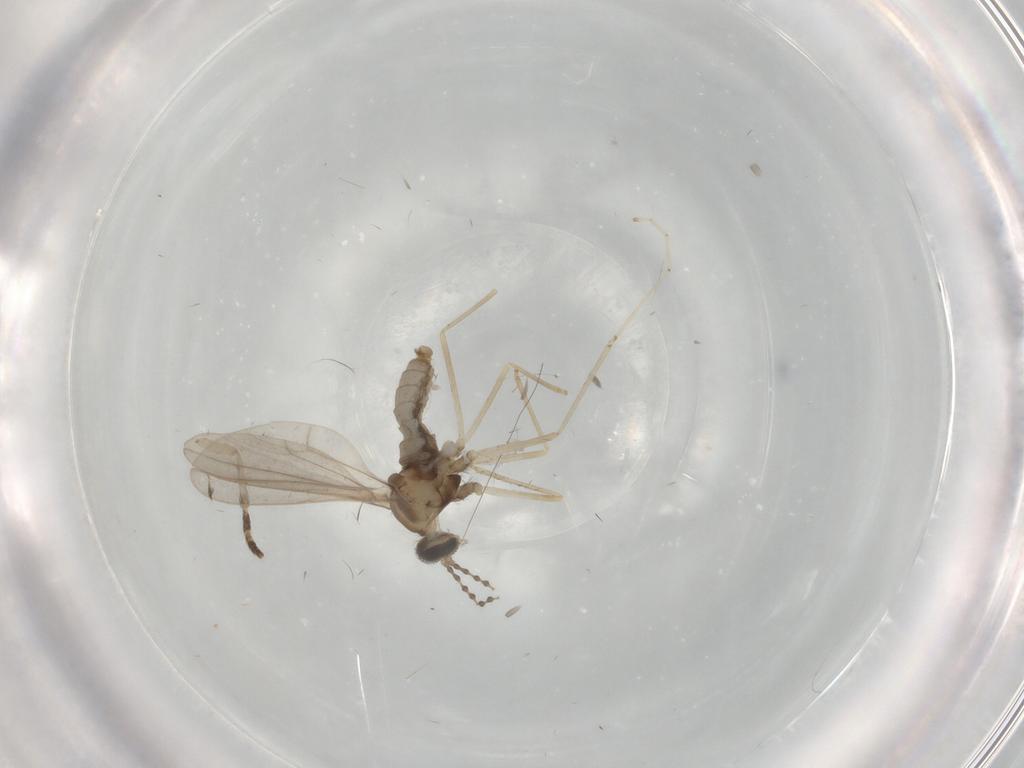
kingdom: Animalia
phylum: Arthropoda
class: Insecta
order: Diptera
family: Psychodidae
